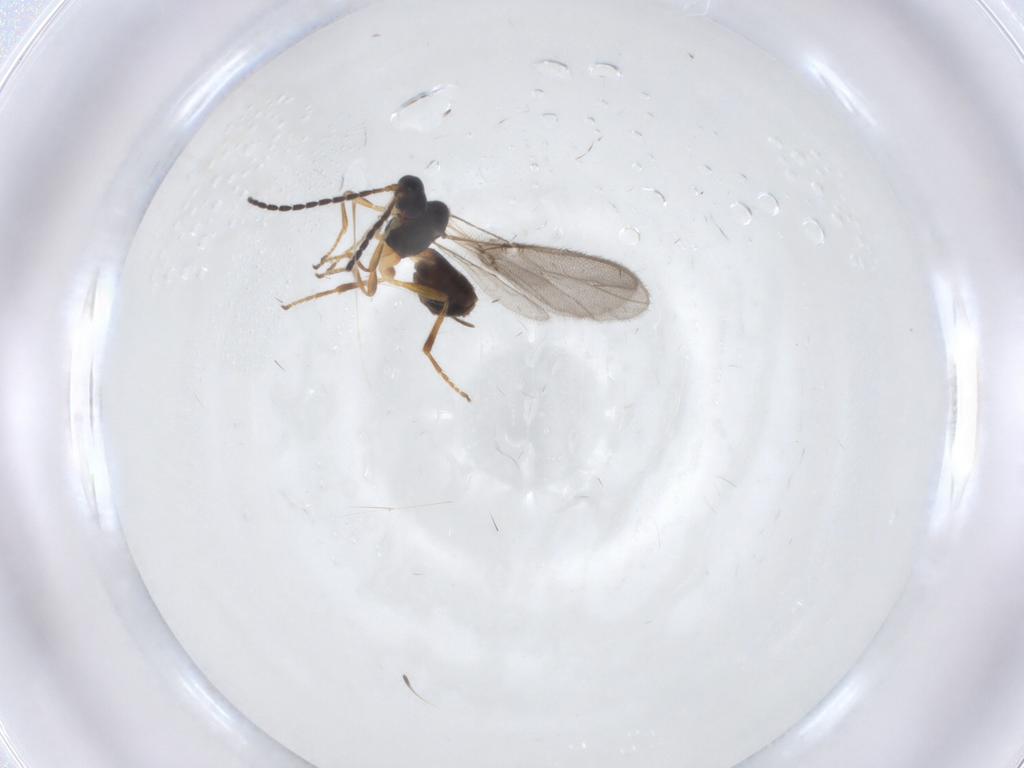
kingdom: Animalia
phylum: Arthropoda
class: Insecta
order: Hymenoptera
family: Braconidae
